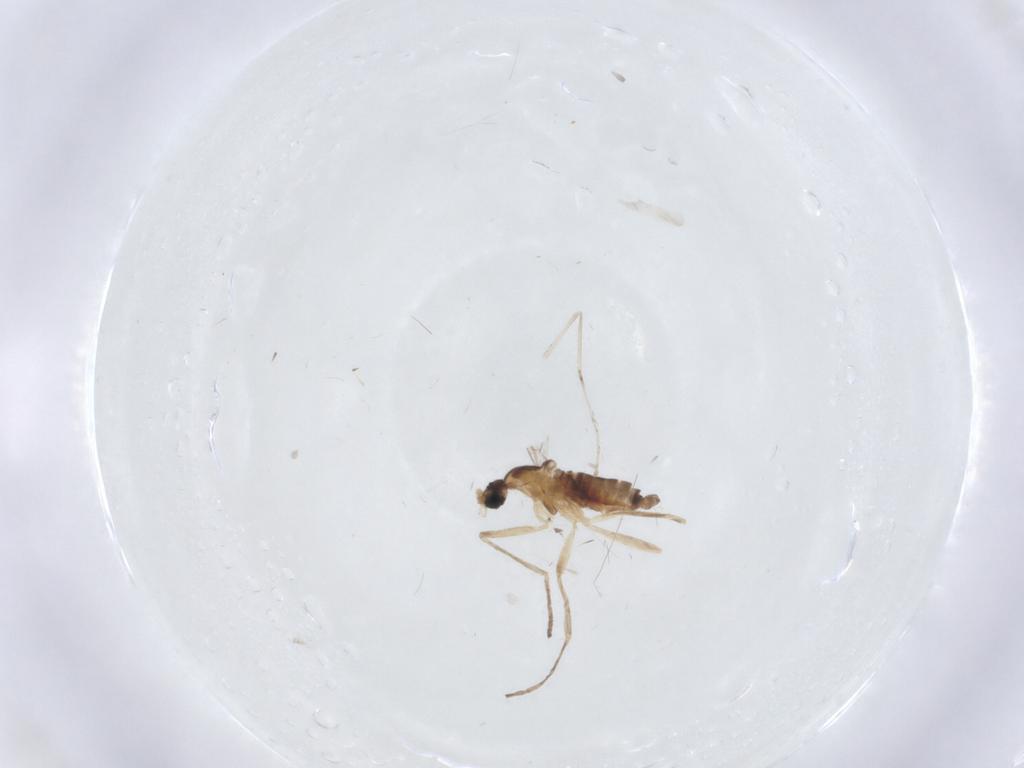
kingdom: Animalia
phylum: Arthropoda
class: Insecta
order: Diptera
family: Cecidomyiidae
